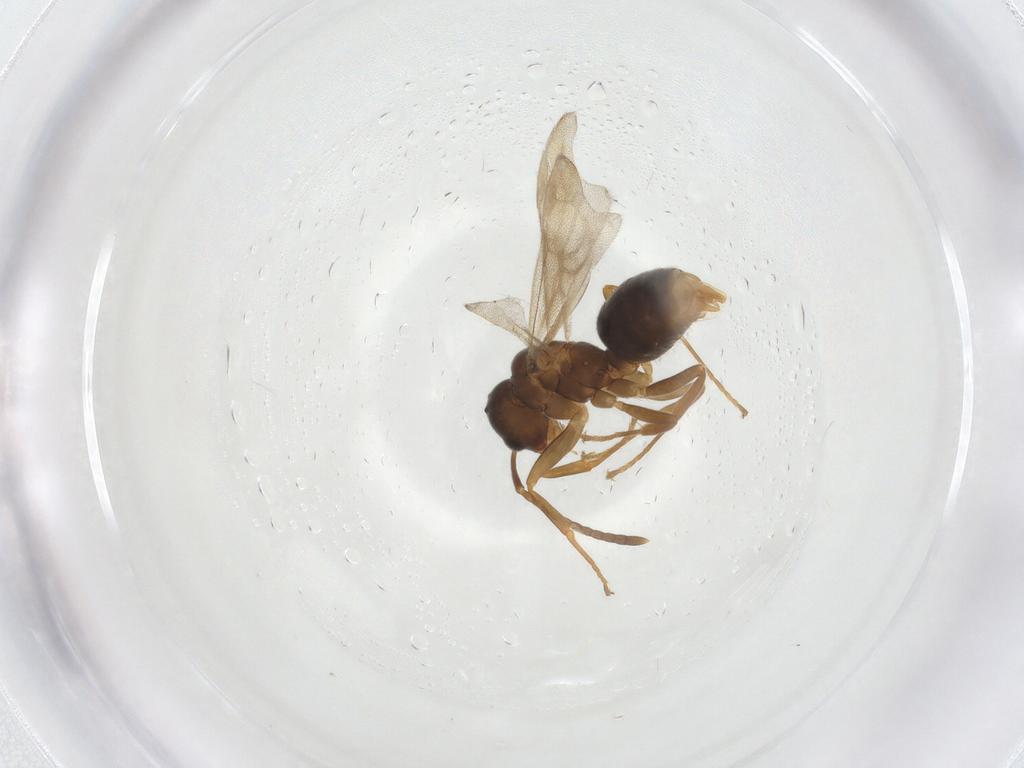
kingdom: Animalia
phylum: Arthropoda
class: Insecta
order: Hymenoptera
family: Formicidae
